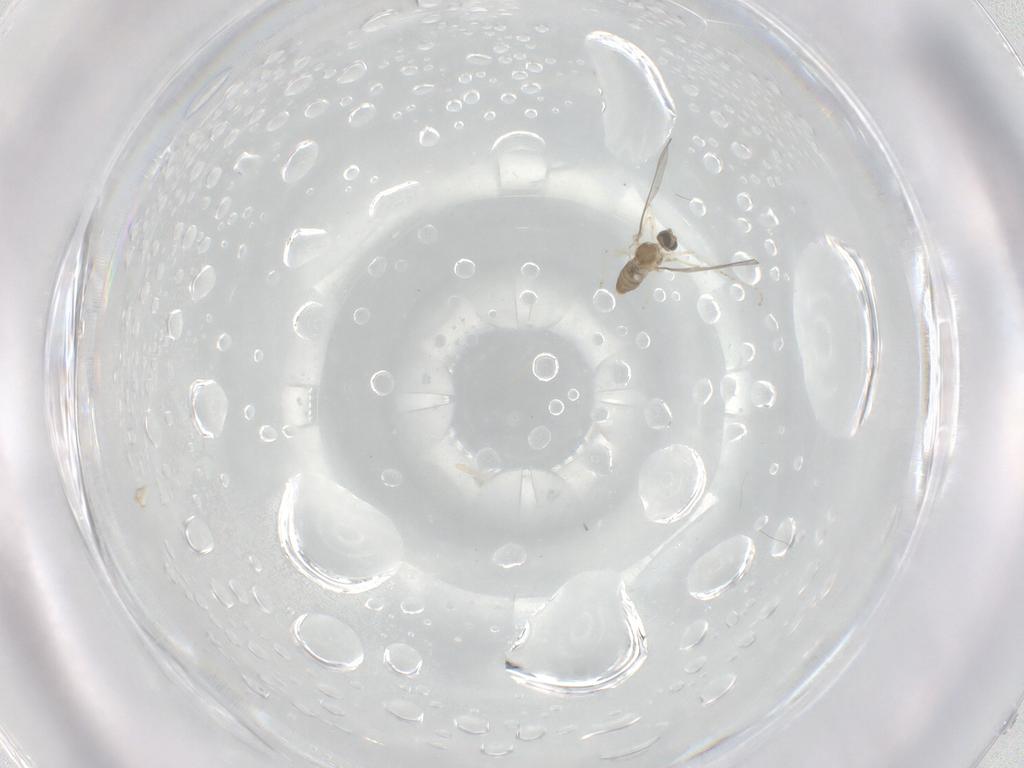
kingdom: Animalia
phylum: Arthropoda
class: Insecta
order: Diptera
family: Cecidomyiidae
